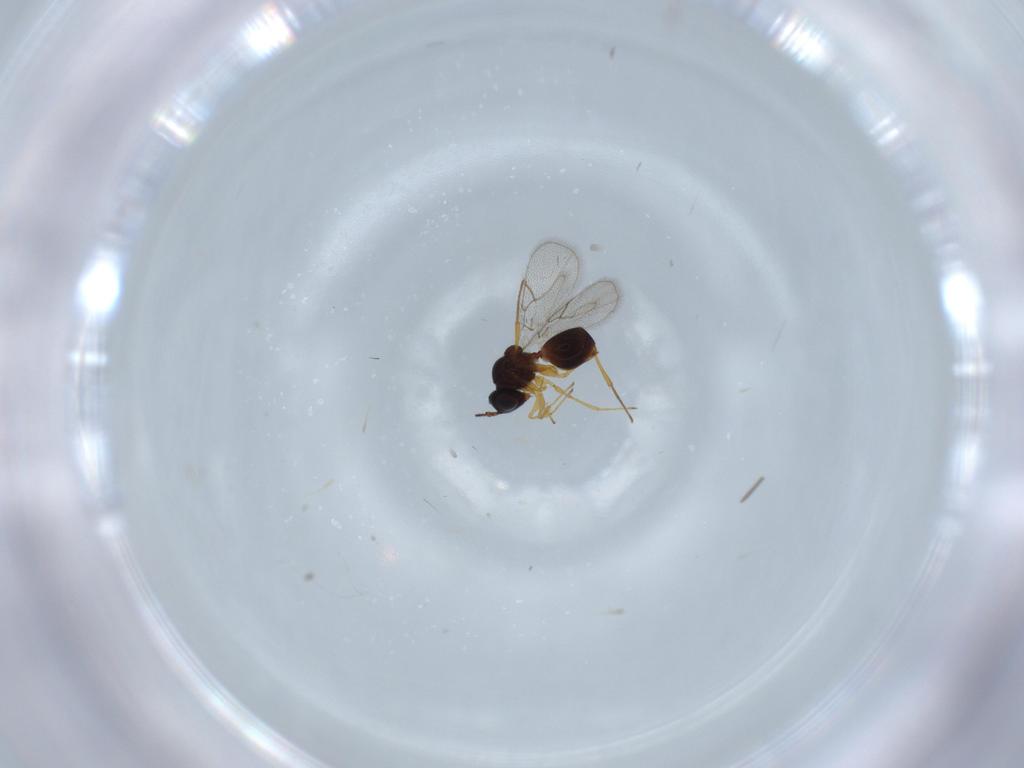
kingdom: Animalia
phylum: Arthropoda
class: Insecta
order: Hymenoptera
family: Figitidae
